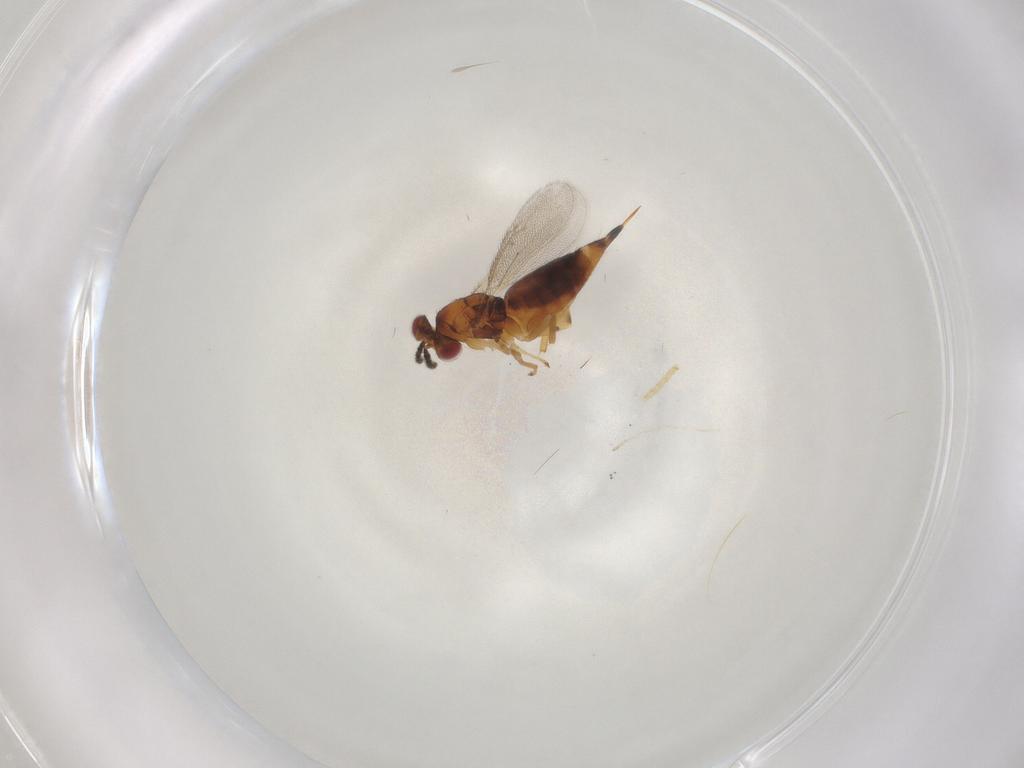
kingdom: Animalia
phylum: Arthropoda
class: Insecta
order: Hymenoptera
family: Eulophidae
